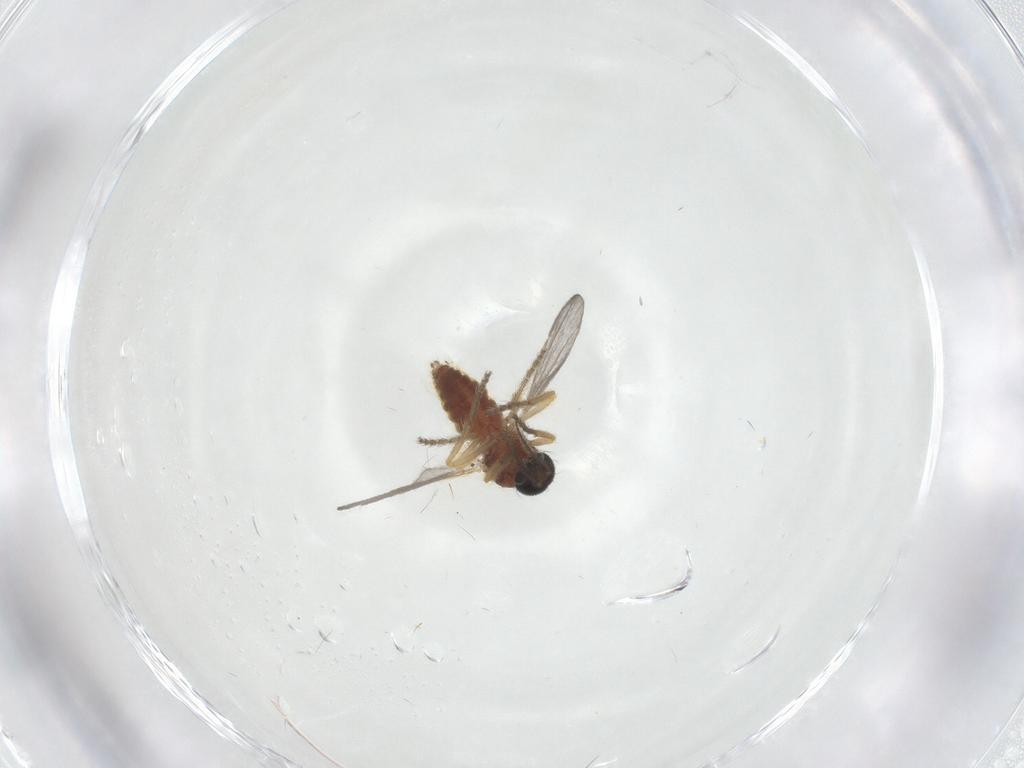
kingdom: Animalia
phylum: Arthropoda
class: Insecta
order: Diptera
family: Ceratopogonidae
